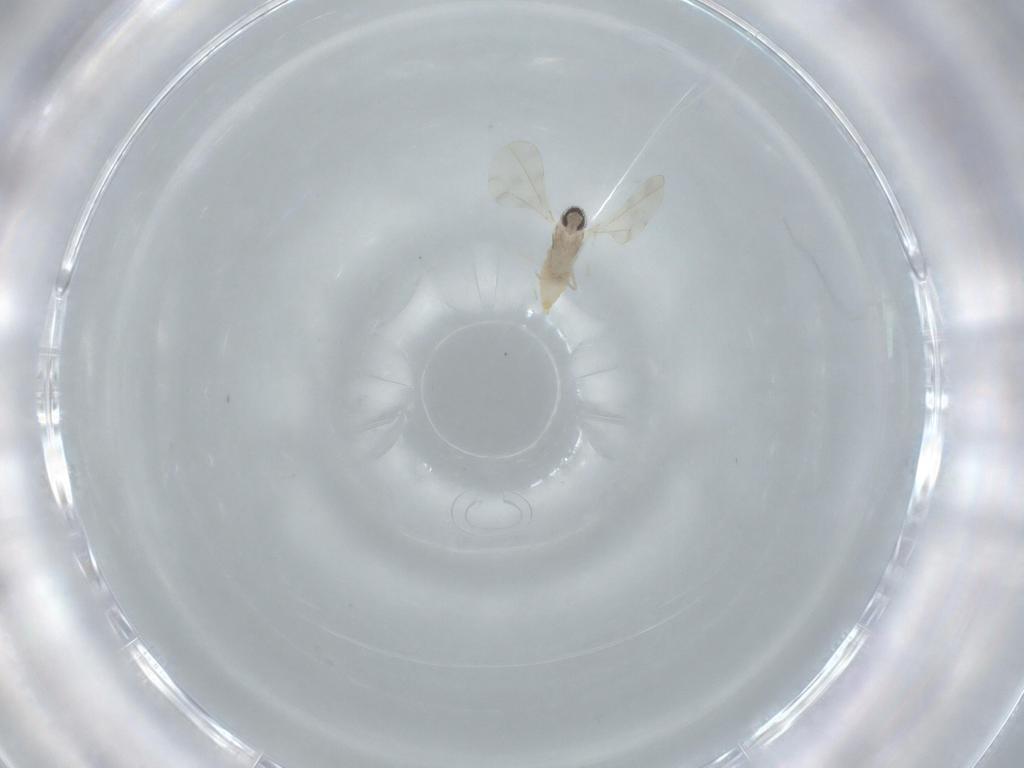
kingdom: Animalia
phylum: Arthropoda
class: Insecta
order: Diptera
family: Cecidomyiidae
